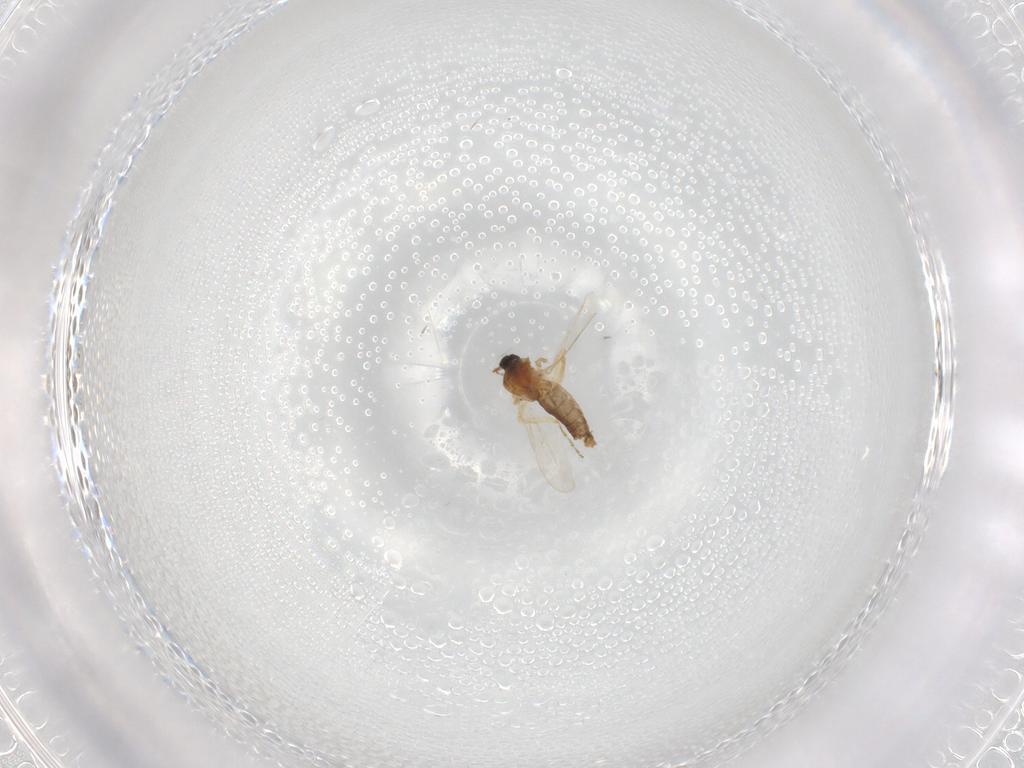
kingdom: Animalia
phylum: Arthropoda
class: Insecta
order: Diptera
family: Ceratopogonidae
